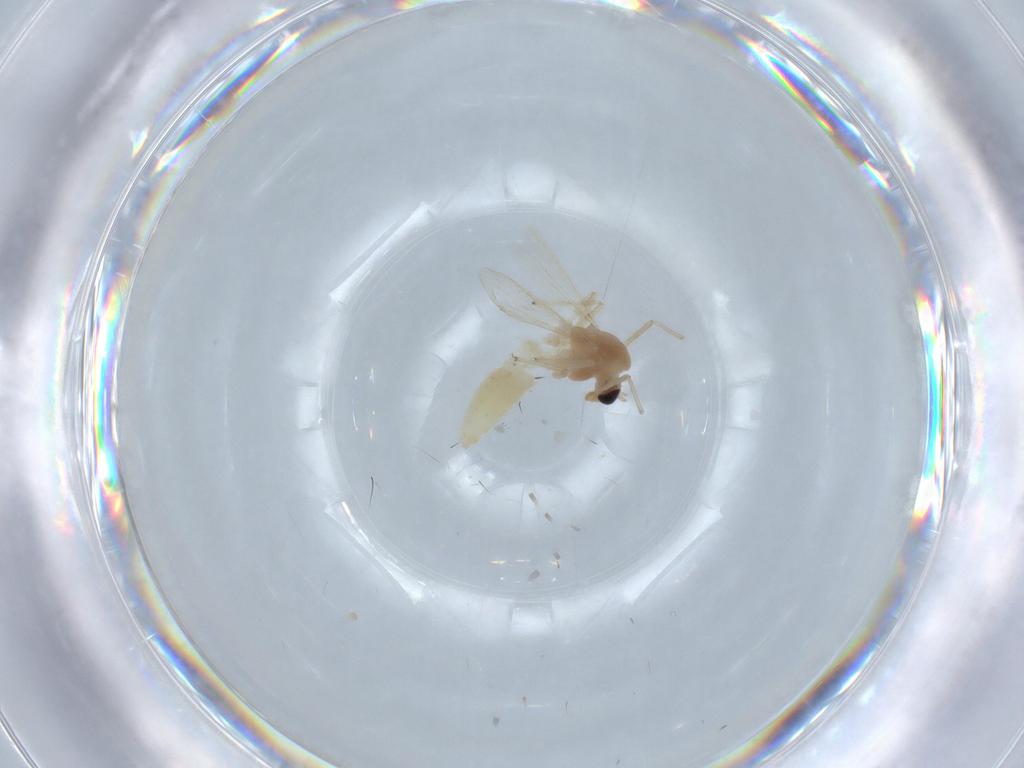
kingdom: Animalia
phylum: Arthropoda
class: Insecta
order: Diptera
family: Chironomidae
